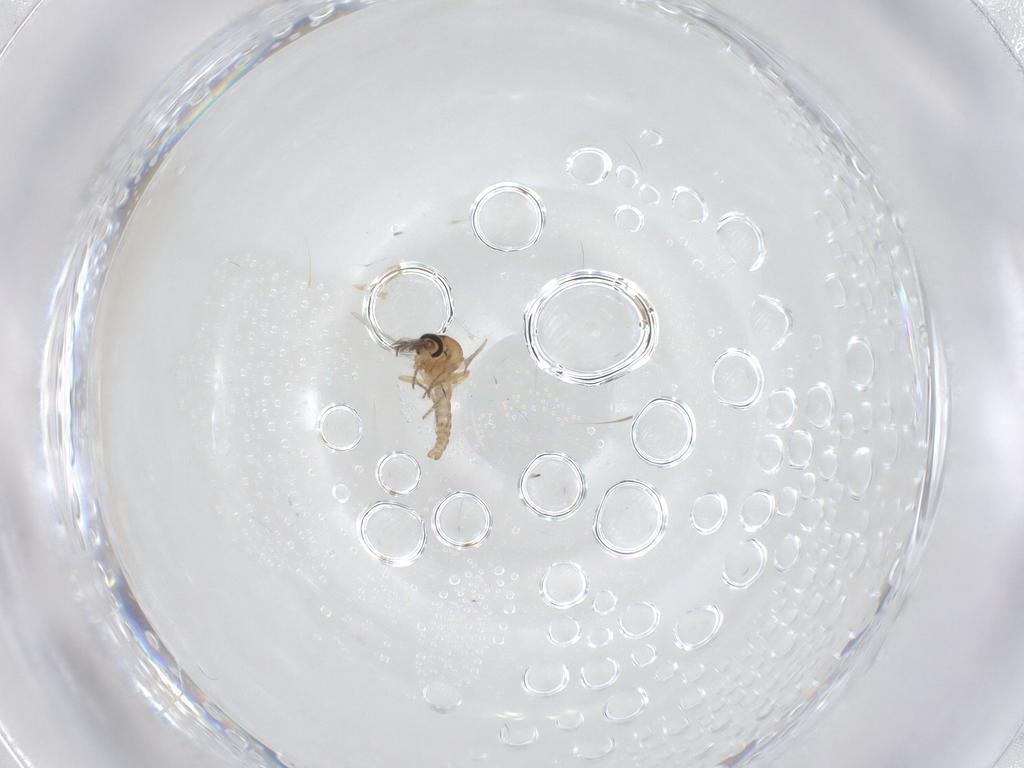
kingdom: Animalia
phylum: Arthropoda
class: Insecta
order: Diptera
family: Ceratopogonidae
